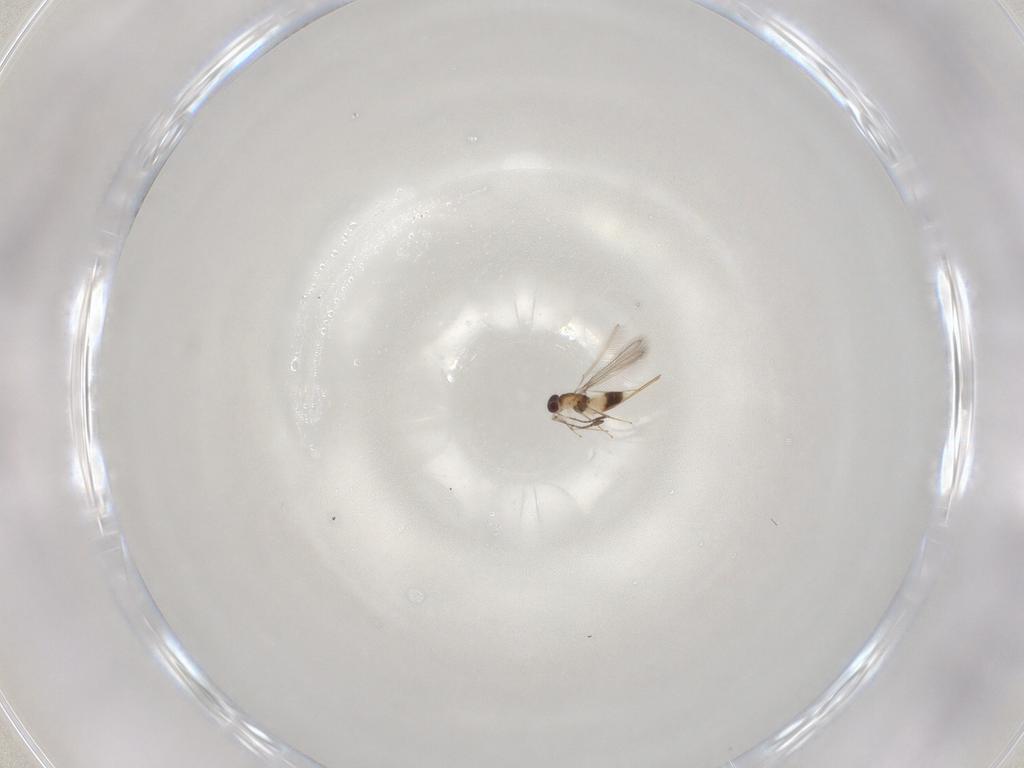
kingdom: Animalia
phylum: Arthropoda
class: Insecta
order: Hymenoptera
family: Mymaridae
